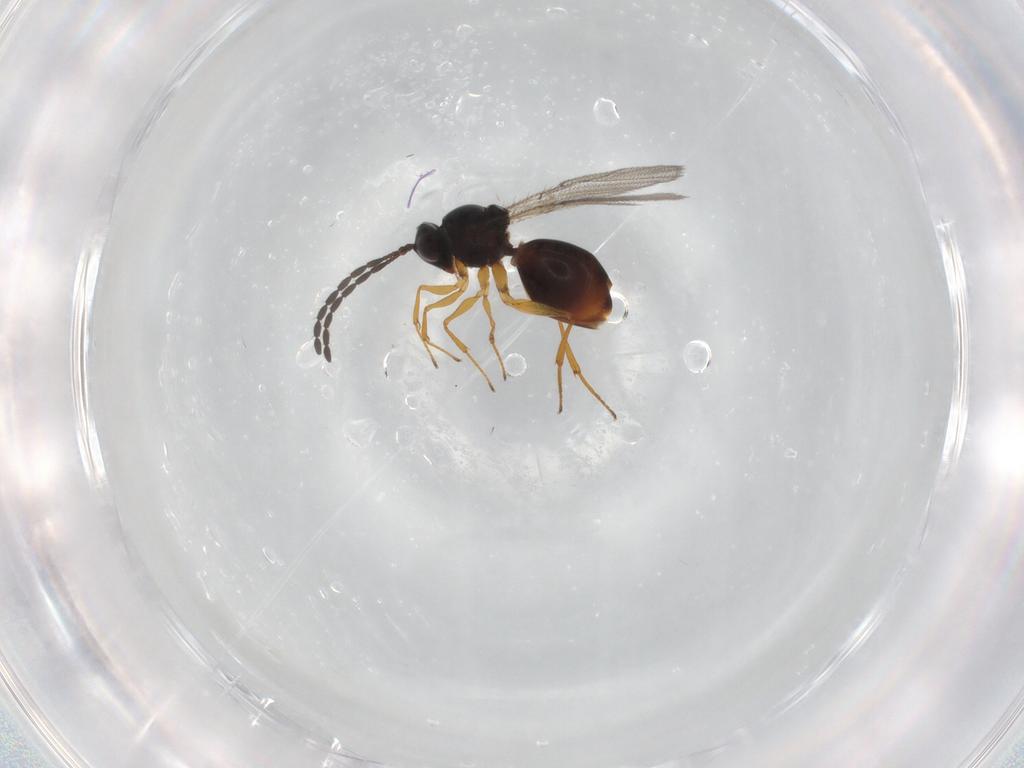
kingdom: Animalia
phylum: Arthropoda
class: Insecta
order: Hymenoptera
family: Figitidae
